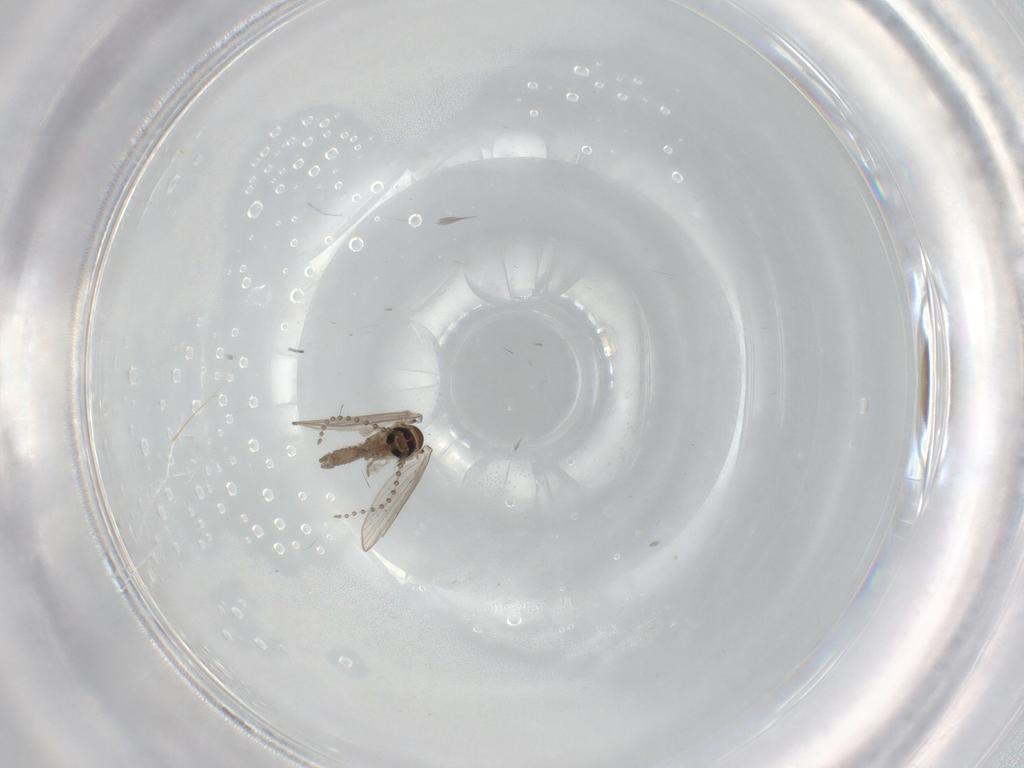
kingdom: Animalia
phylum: Arthropoda
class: Insecta
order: Diptera
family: Psychodidae
